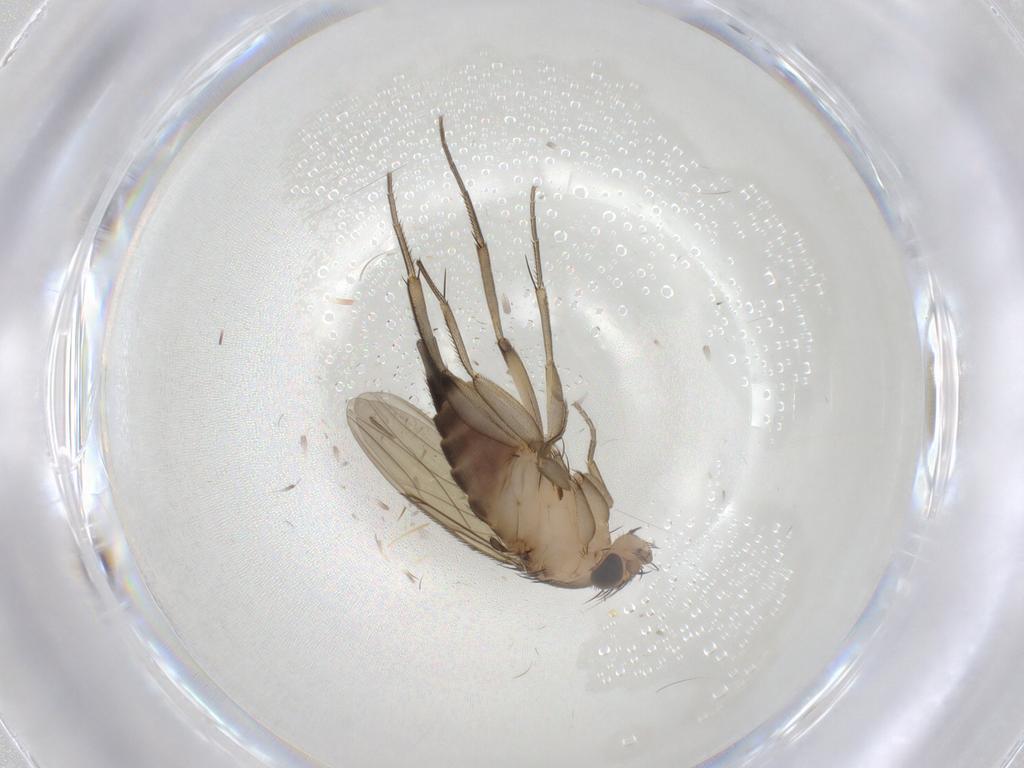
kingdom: Animalia
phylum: Arthropoda
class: Insecta
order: Diptera
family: Phoridae
